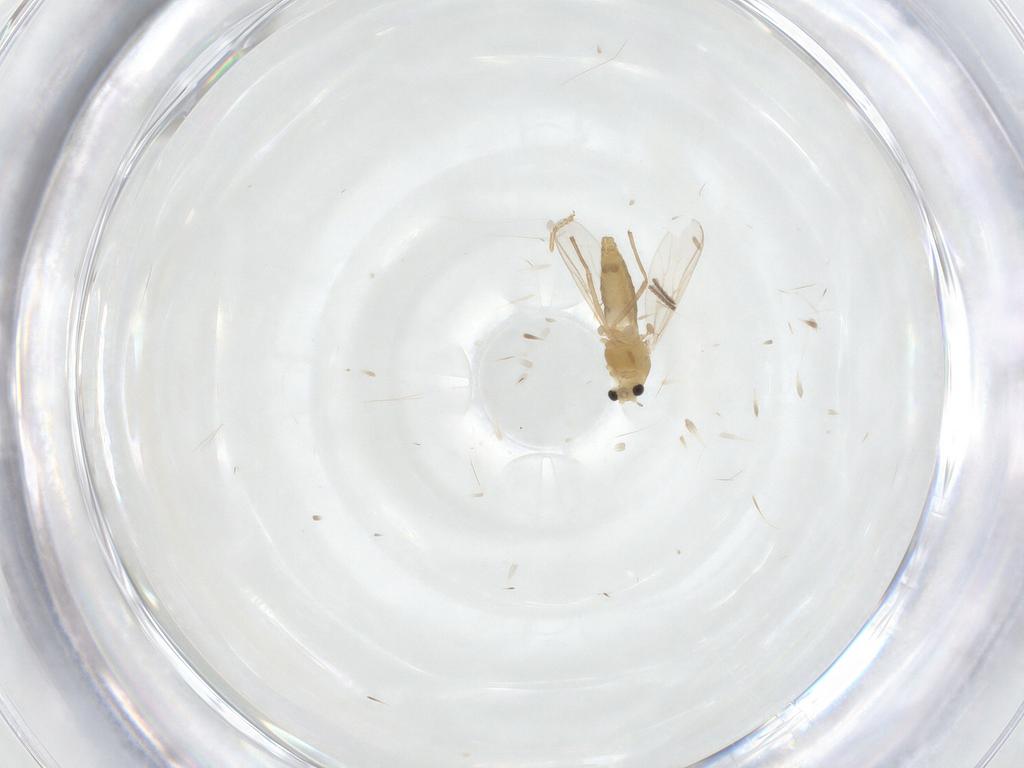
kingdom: Animalia
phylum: Arthropoda
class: Insecta
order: Diptera
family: Chironomidae
